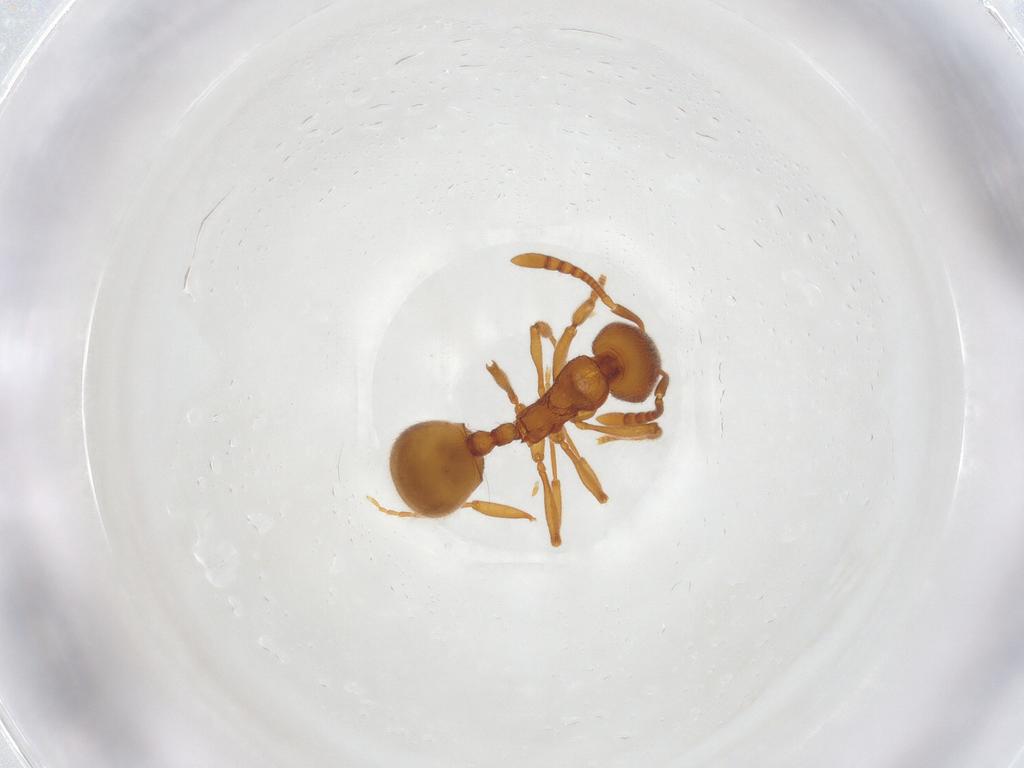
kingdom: Animalia
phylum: Arthropoda
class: Insecta
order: Hymenoptera
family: Formicidae
